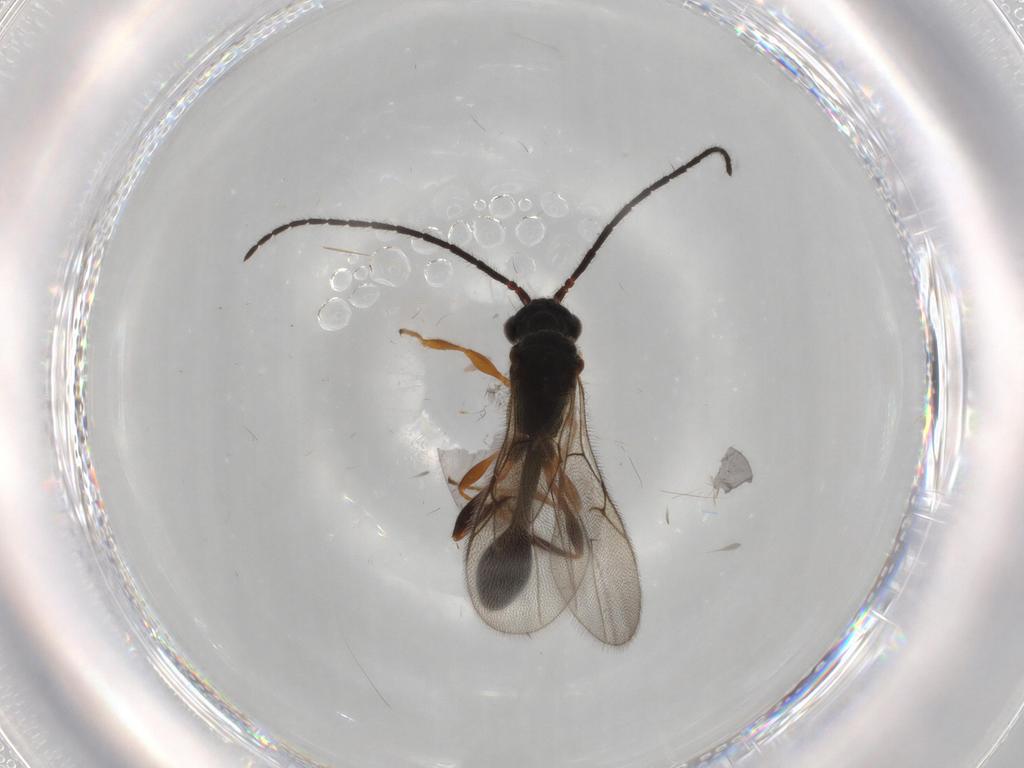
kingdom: Animalia
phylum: Arthropoda
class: Insecta
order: Hymenoptera
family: Diapriidae
